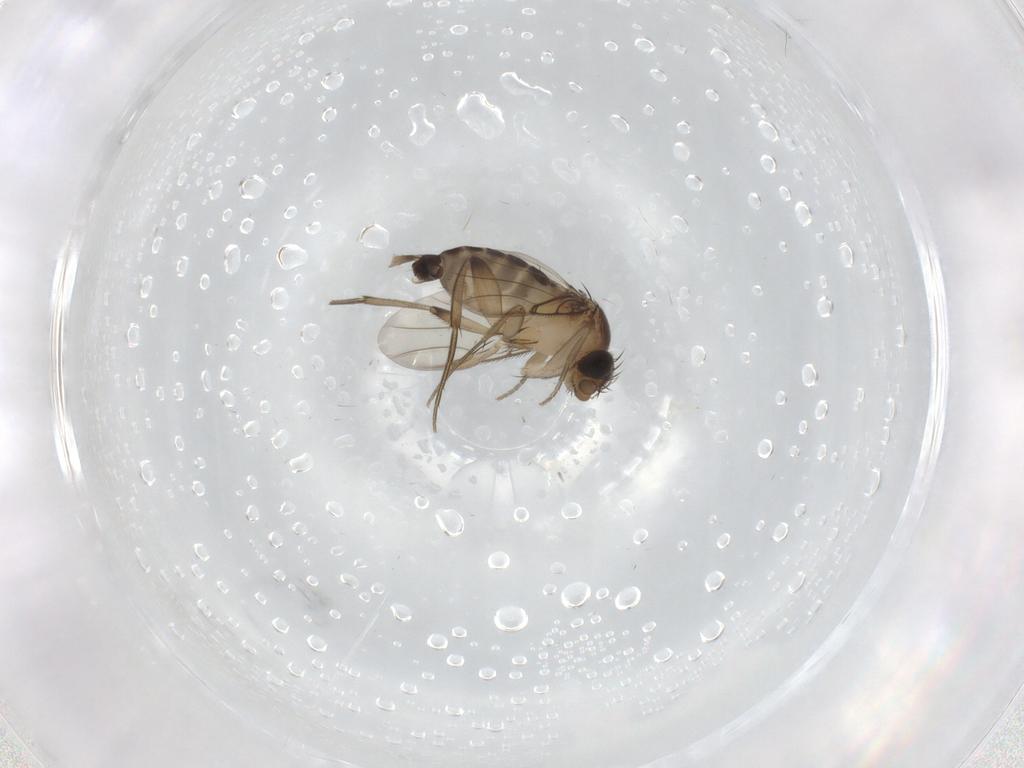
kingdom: Animalia
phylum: Arthropoda
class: Insecta
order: Diptera
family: Phoridae
